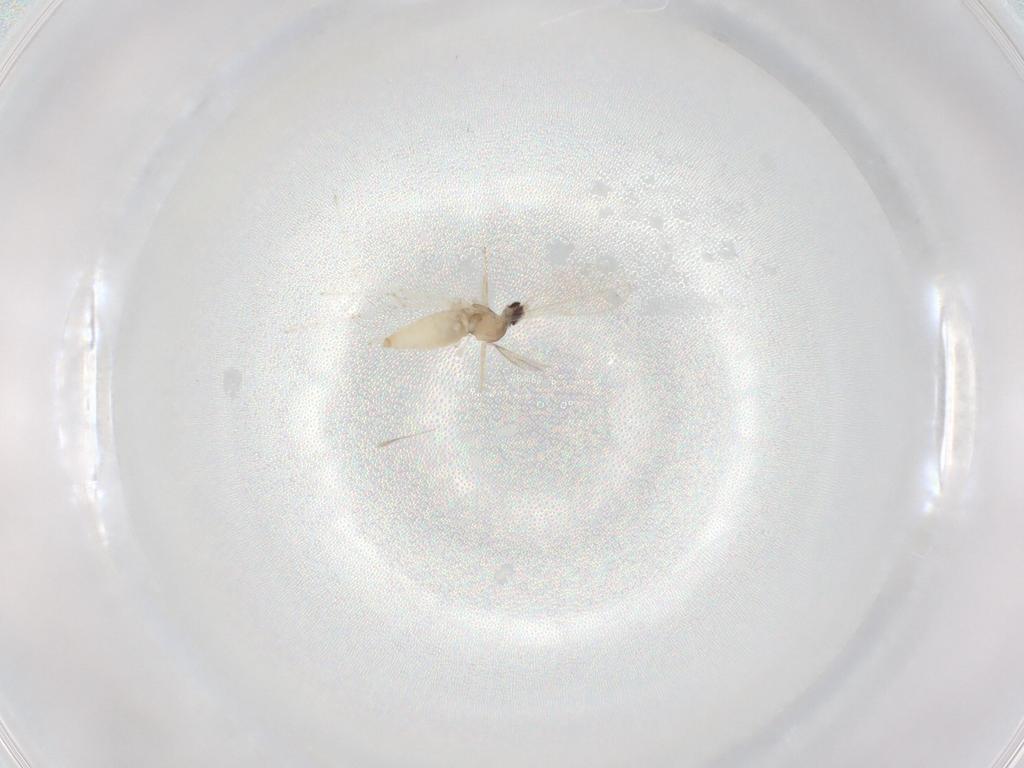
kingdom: Animalia
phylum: Arthropoda
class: Insecta
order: Diptera
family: Cecidomyiidae
